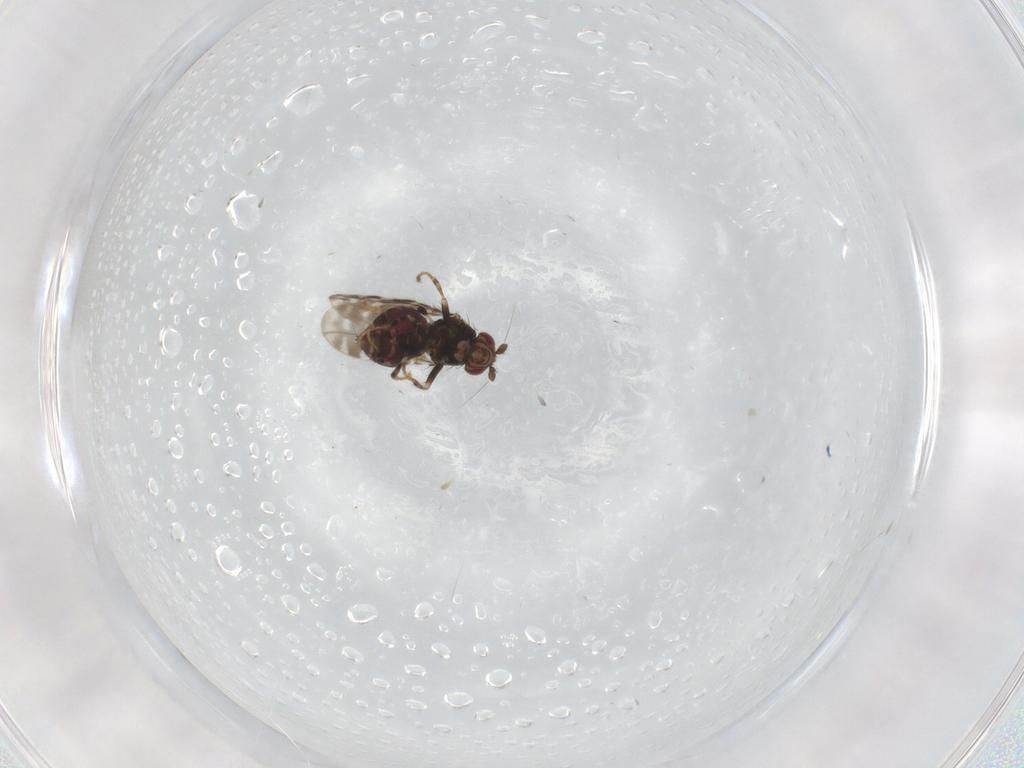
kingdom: Animalia
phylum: Arthropoda
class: Insecta
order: Diptera
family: Sphaeroceridae
